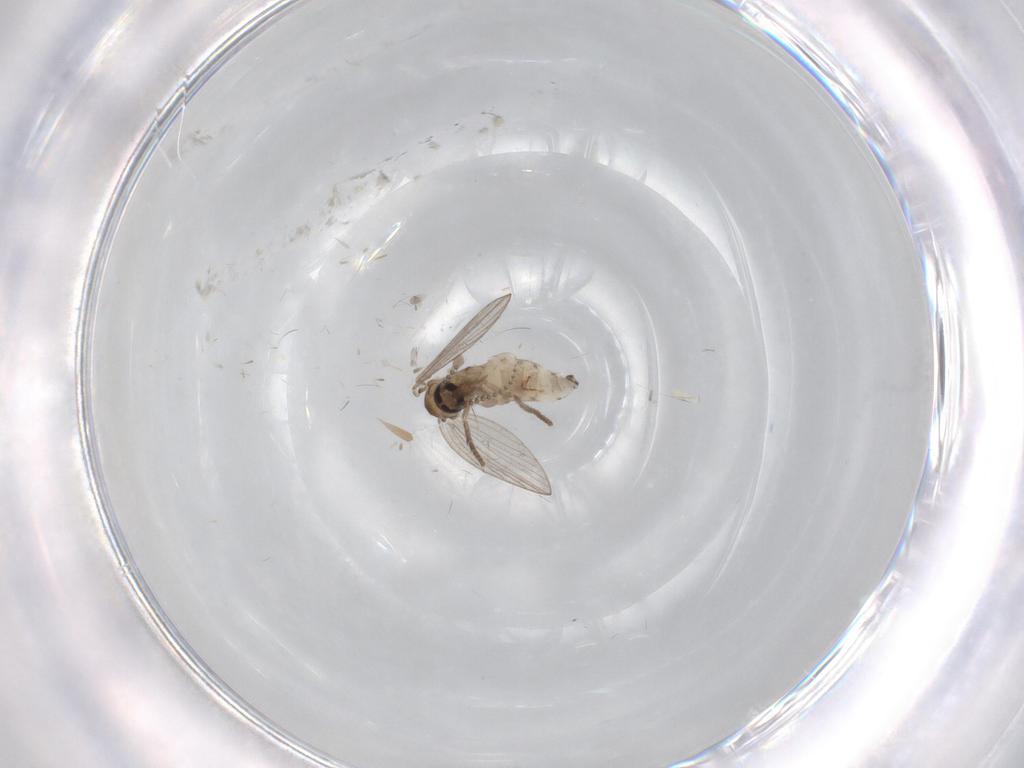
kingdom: Animalia
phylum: Arthropoda
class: Insecta
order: Diptera
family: Psychodidae
